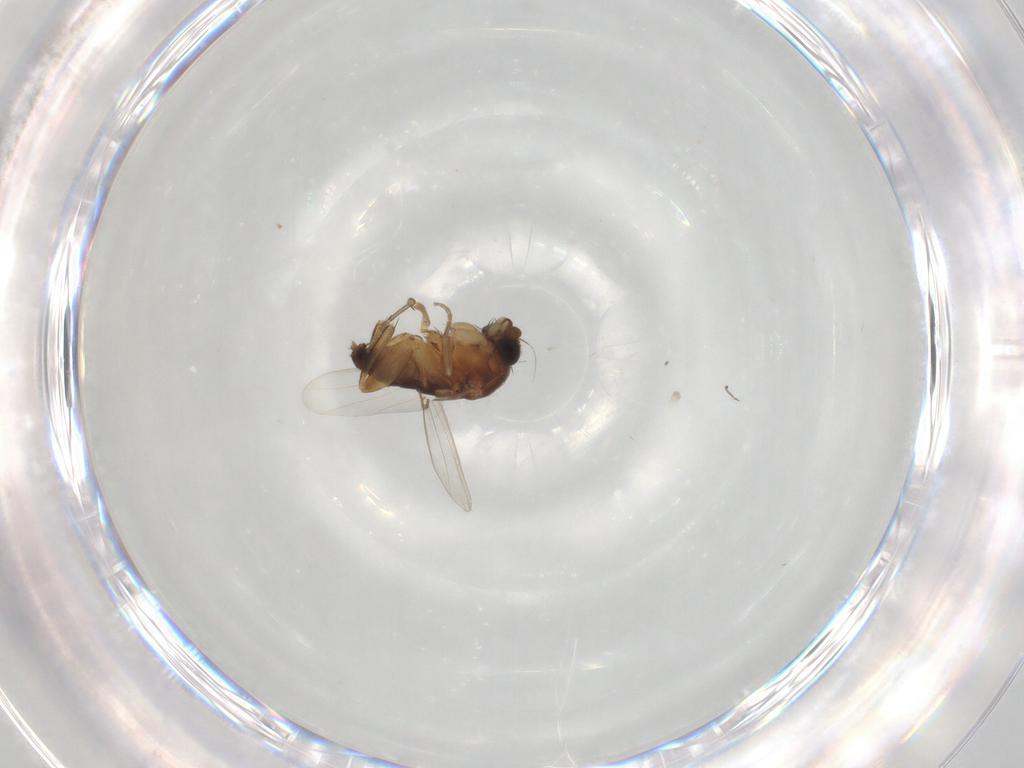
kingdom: Animalia
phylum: Arthropoda
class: Insecta
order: Diptera
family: Phoridae
